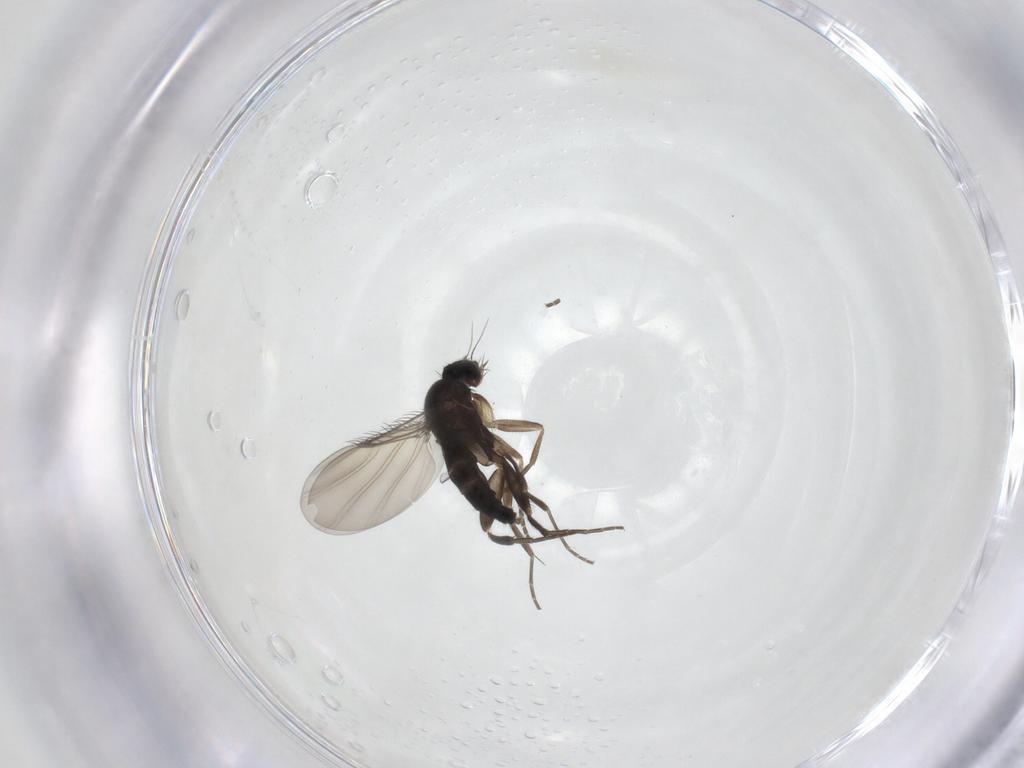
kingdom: Animalia
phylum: Arthropoda
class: Insecta
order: Diptera
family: Phoridae
